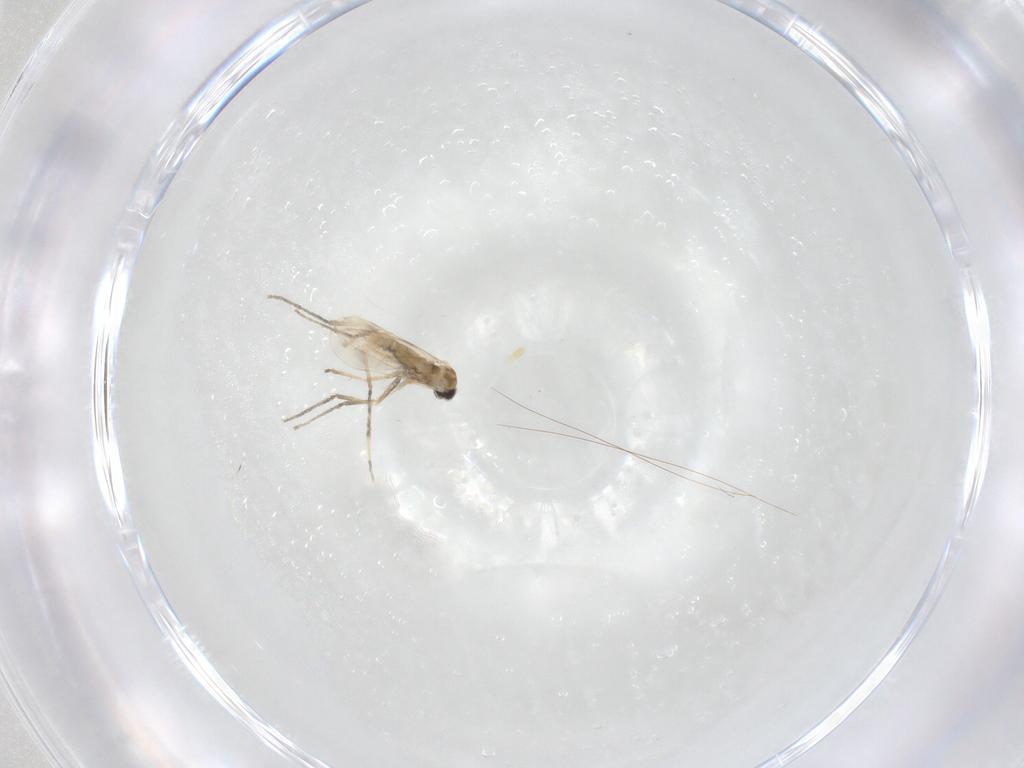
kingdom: Animalia
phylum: Arthropoda
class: Insecta
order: Diptera
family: Cecidomyiidae
